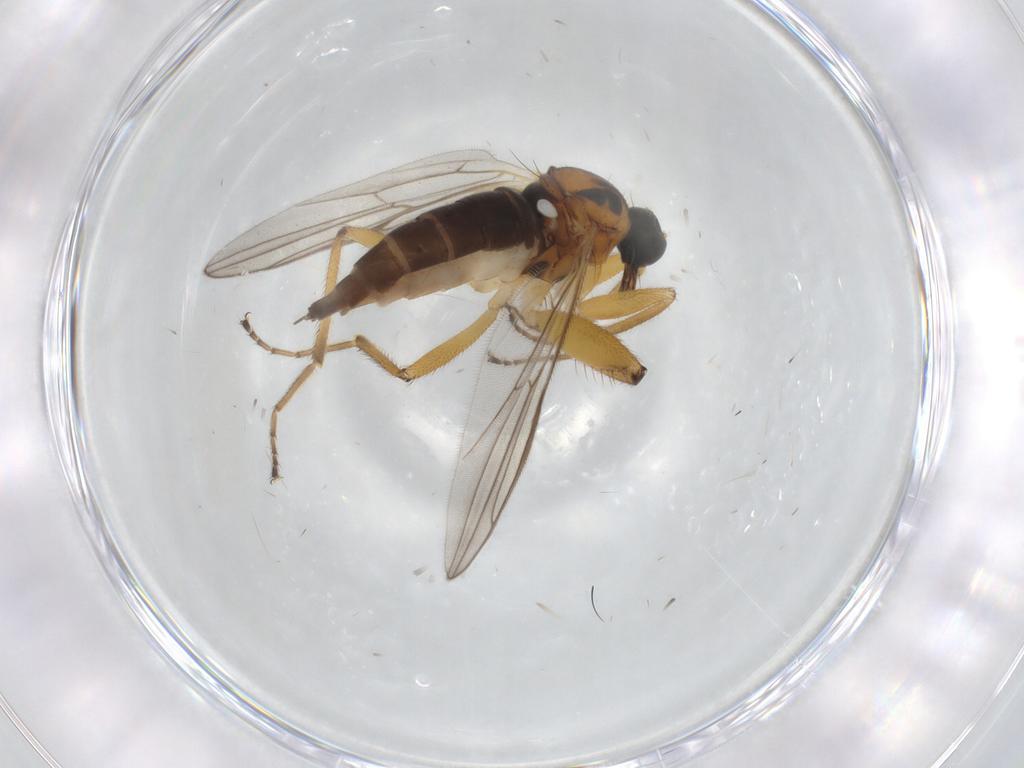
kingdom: Animalia
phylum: Arthropoda
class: Insecta
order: Diptera
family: Hybotidae
